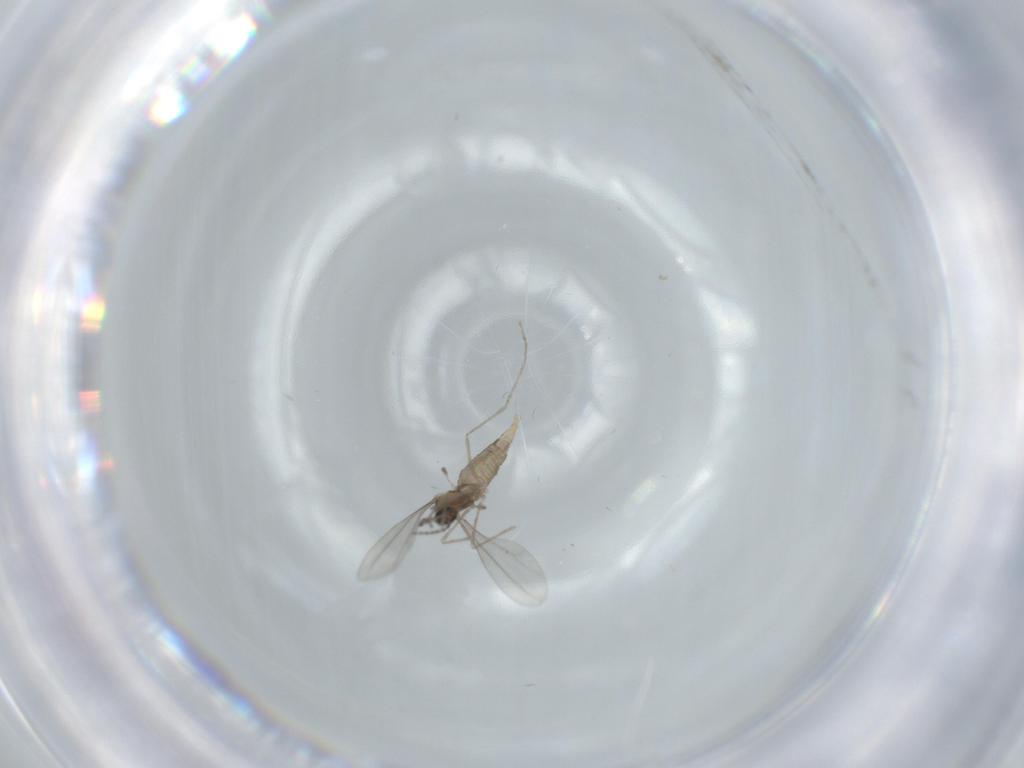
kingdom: Animalia
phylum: Arthropoda
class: Insecta
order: Diptera
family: Cecidomyiidae
